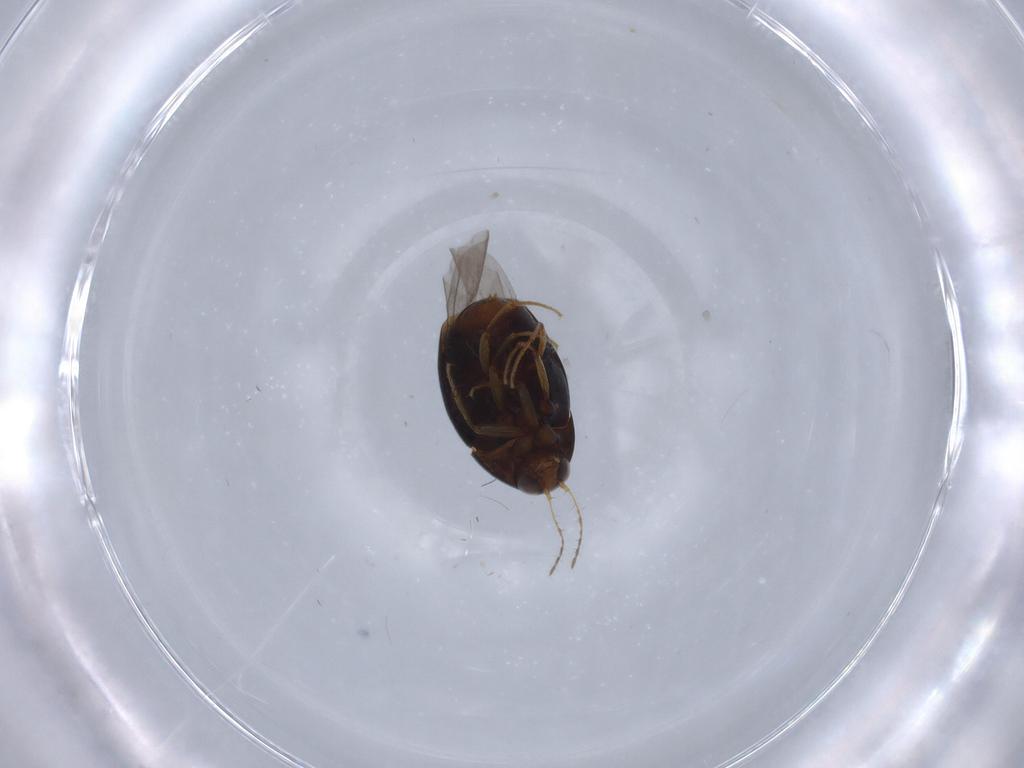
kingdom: Animalia
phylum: Arthropoda
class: Insecta
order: Coleoptera
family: Staphylinidae
